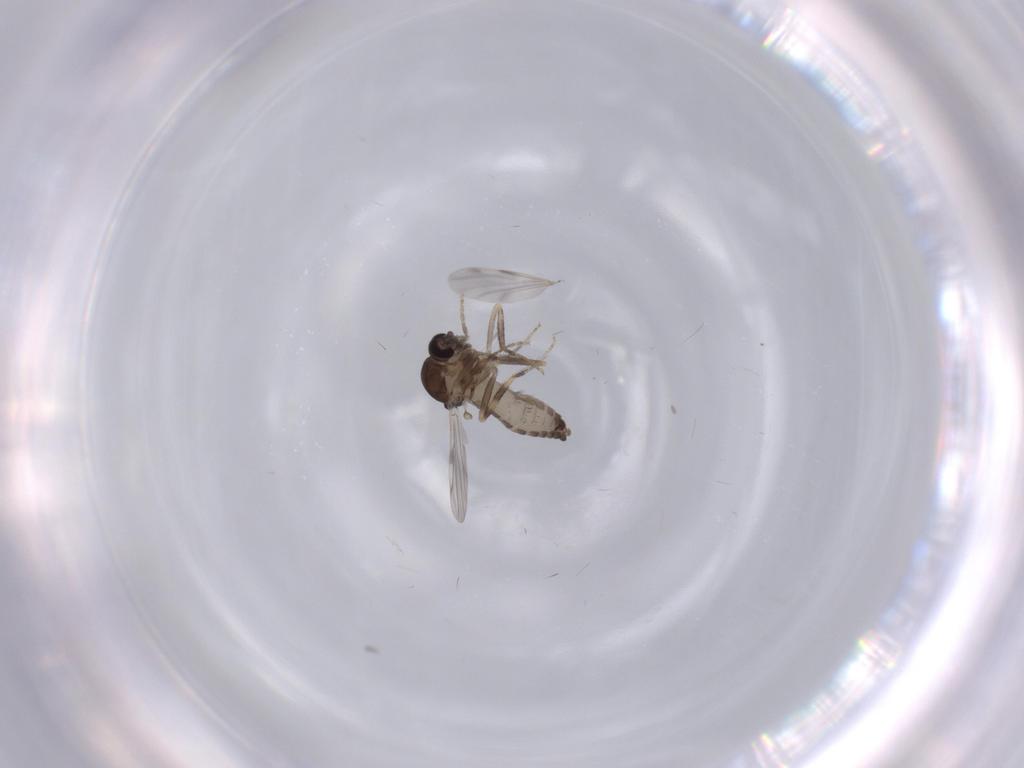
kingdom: Animalia
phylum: Arthropoda
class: Insecta
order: Diptera
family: Ceratopogonidae
